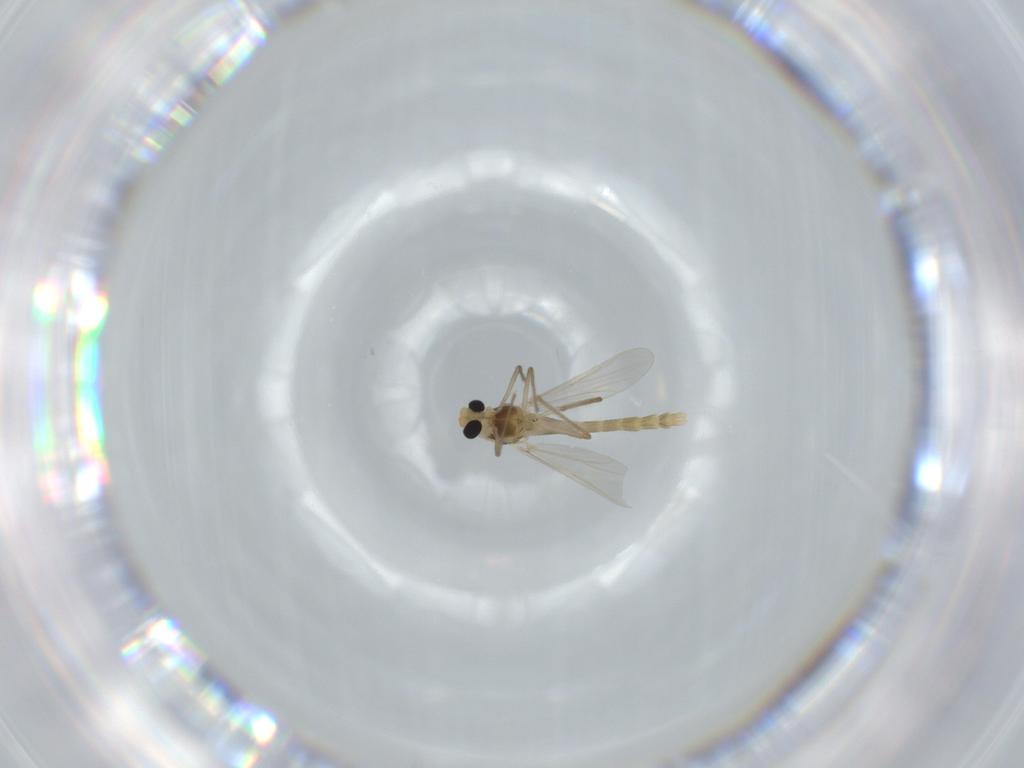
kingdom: Animalia
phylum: Arthropoda
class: Insecta
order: Diptera
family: Chironomidae
